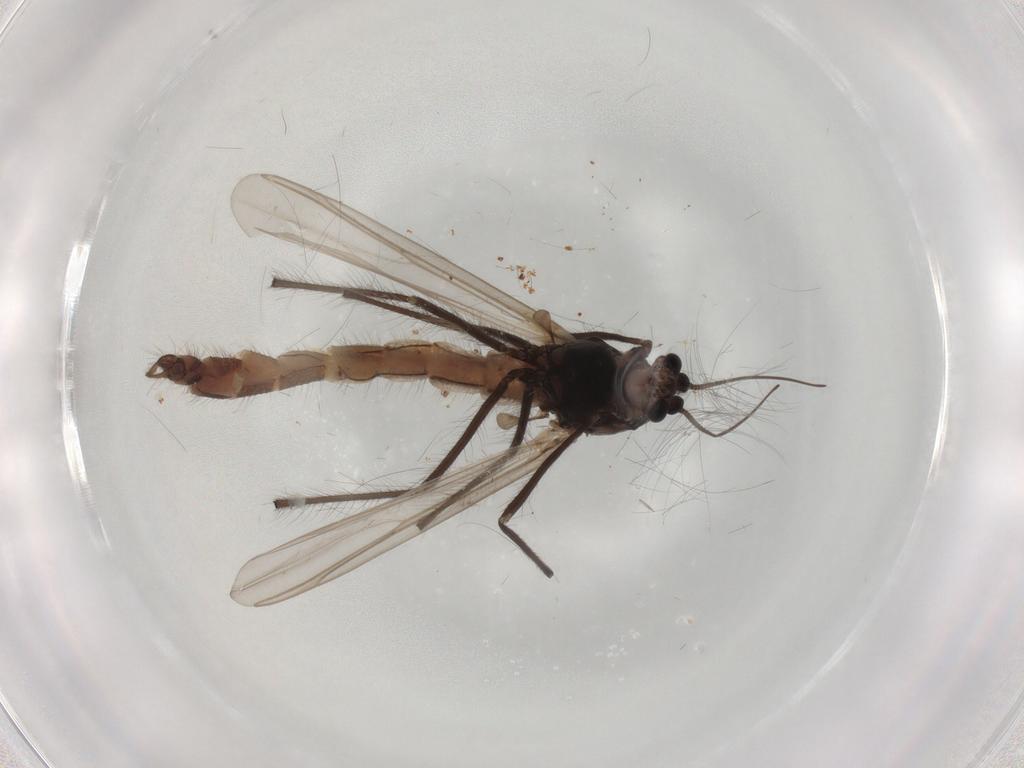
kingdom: Animalia
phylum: Arthropoda
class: Insecta
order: Diptera
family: Chironomidae
